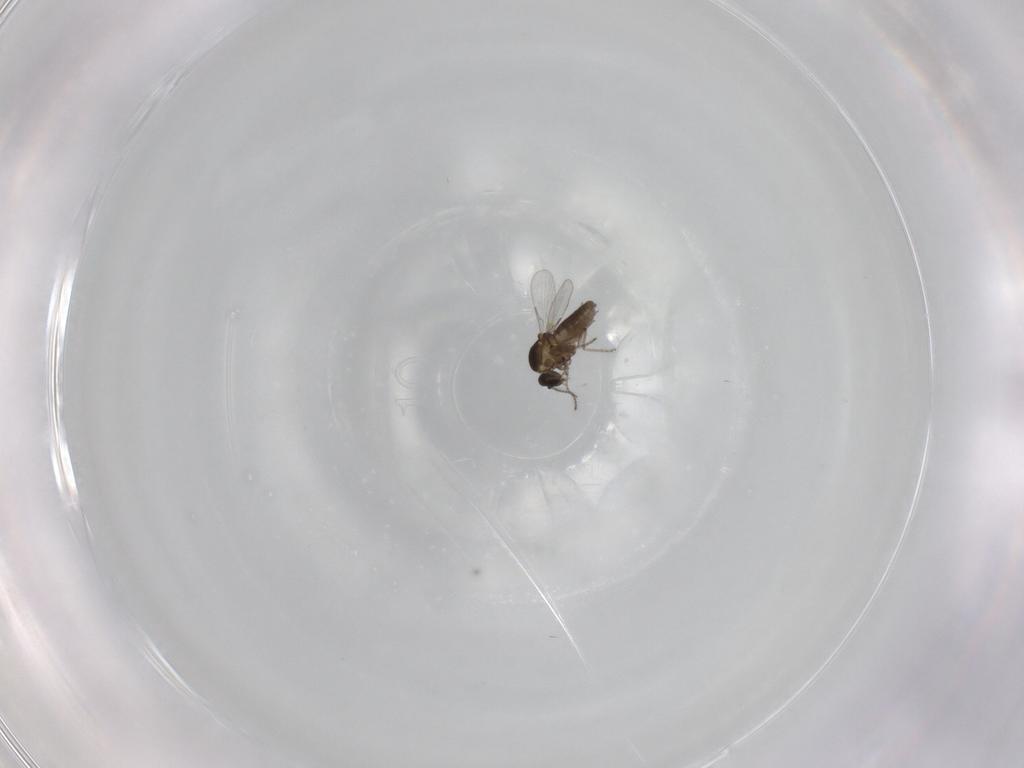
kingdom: Animalia
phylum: Arthropoda
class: Insecta
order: Diptera
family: Ceratopogonidae
